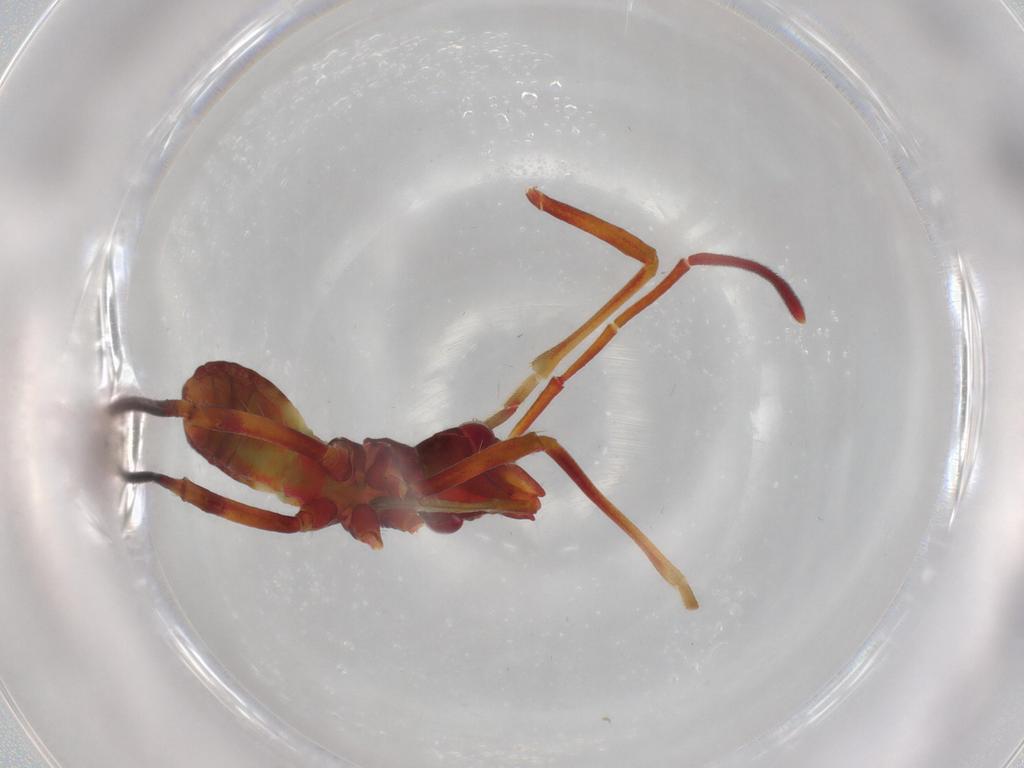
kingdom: Animalia
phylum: Arthropoda
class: Insecta
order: Hemiptera
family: Alydidae
